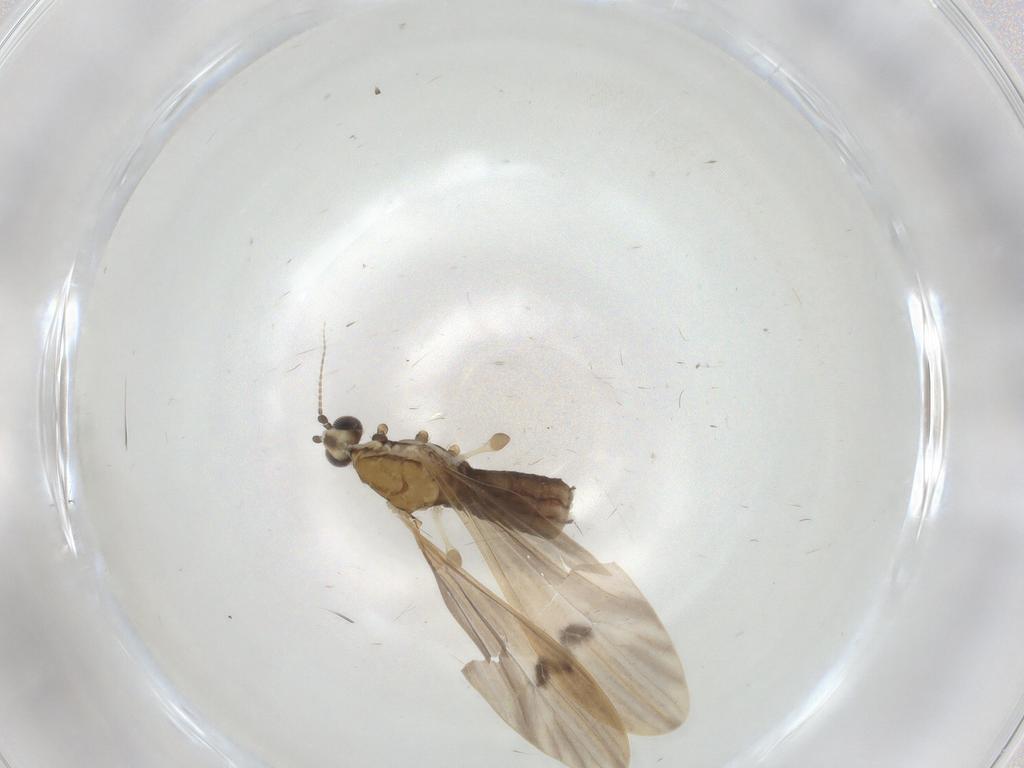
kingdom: Animalia
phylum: Arthropoda
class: Insecta
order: Diptera
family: Limoniidae
